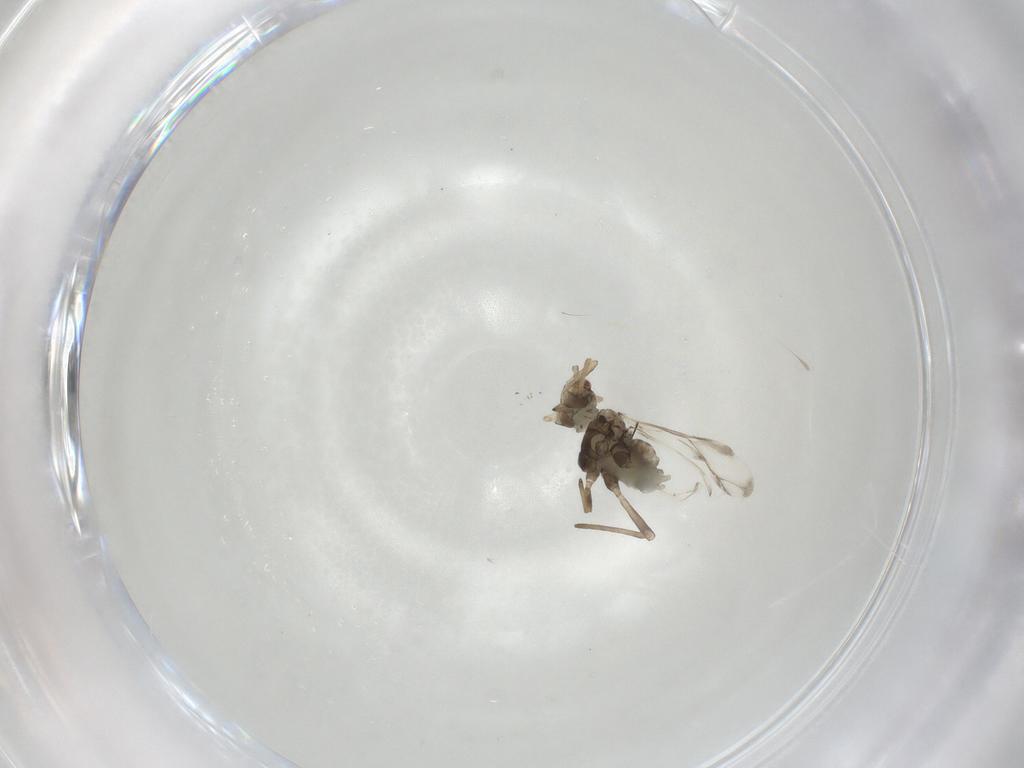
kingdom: Animalia
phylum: Arthropoda
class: Insecta
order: Hemiptera
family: Aphididae
